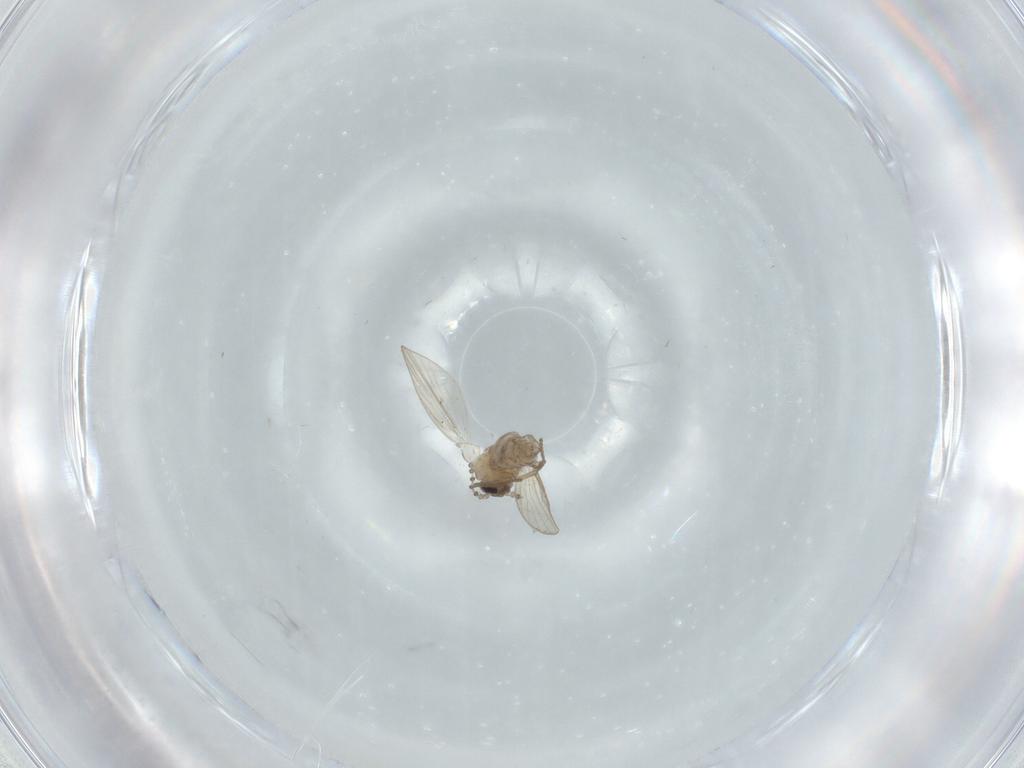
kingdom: Animalia
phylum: Arthropoda
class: Insecta
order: Diptera
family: Psychodidae
